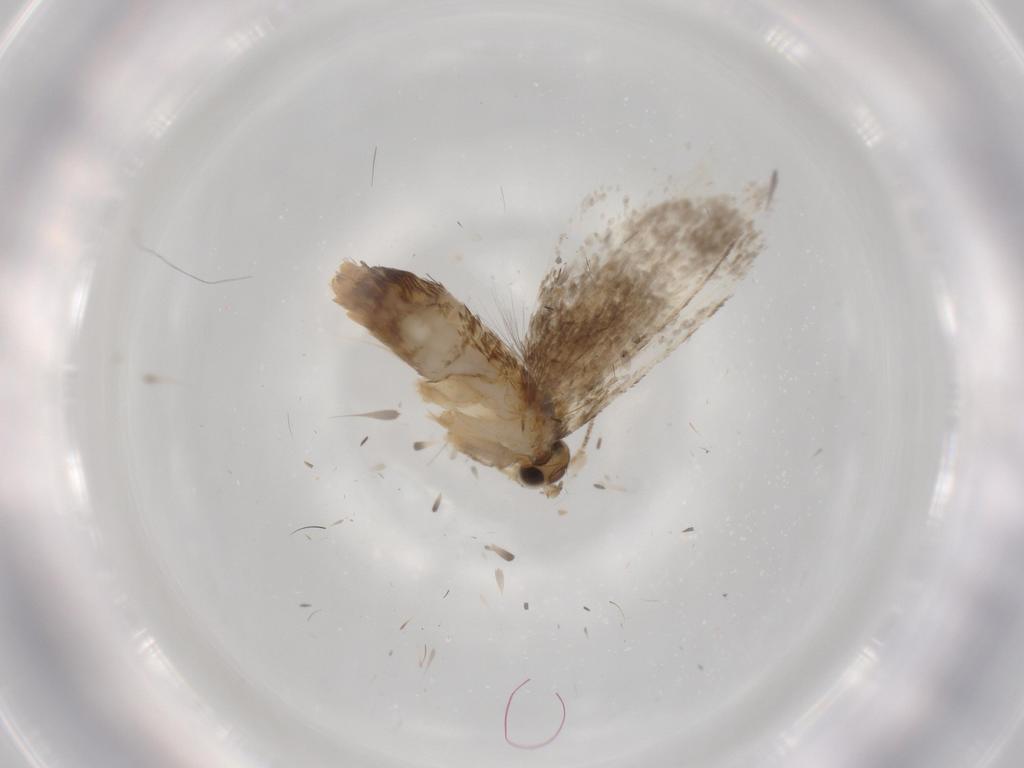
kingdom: Animalia
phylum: Arthropoda
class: Insecta
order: Lepidoptera
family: Tineidae
